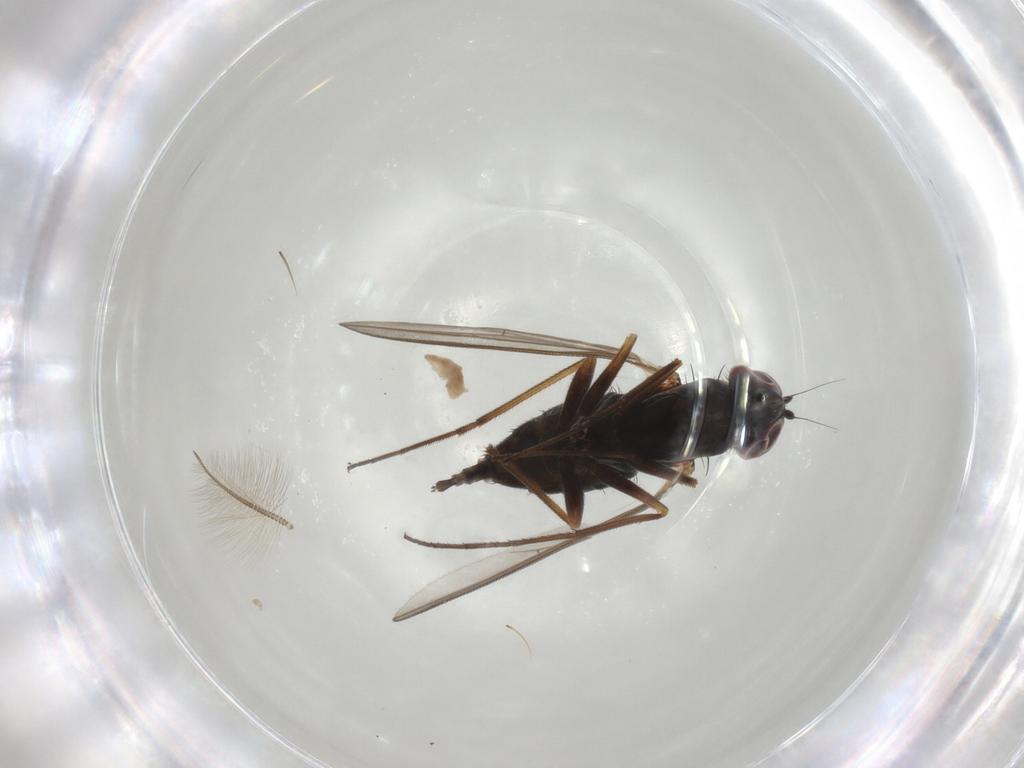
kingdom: Animalia
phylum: Arthropoda
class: Insecta
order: Diptera
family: Dolichopodidae
